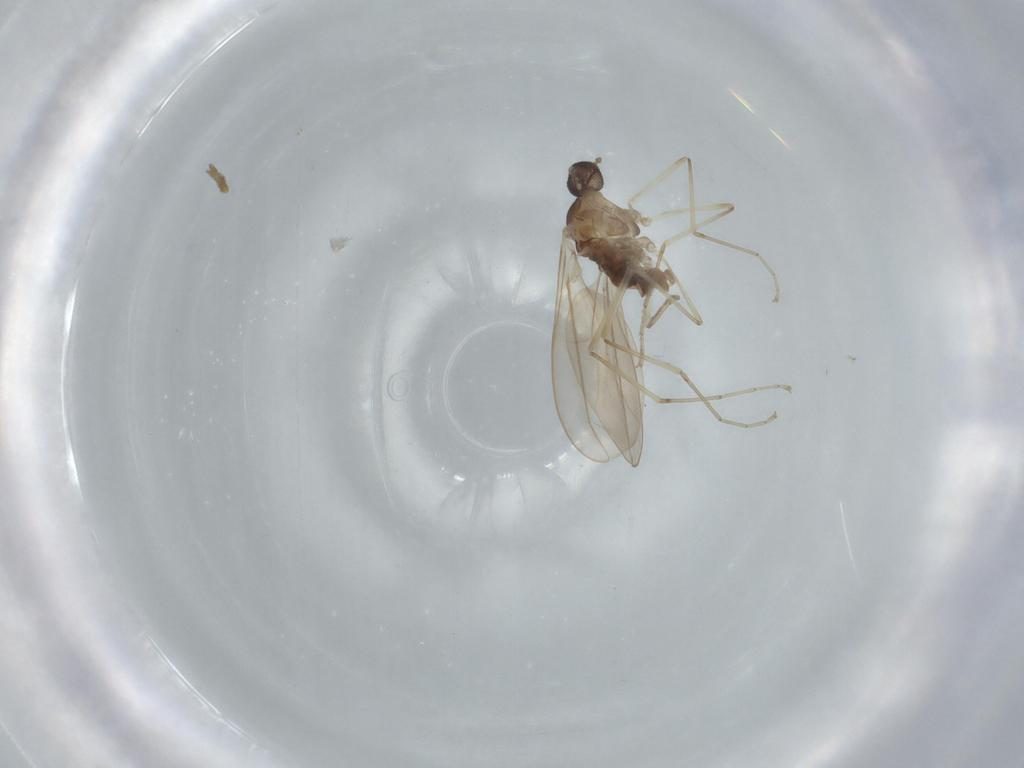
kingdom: Animalia
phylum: Arthropoda
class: Insecta
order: Diptera
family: Cecidomyiidae
